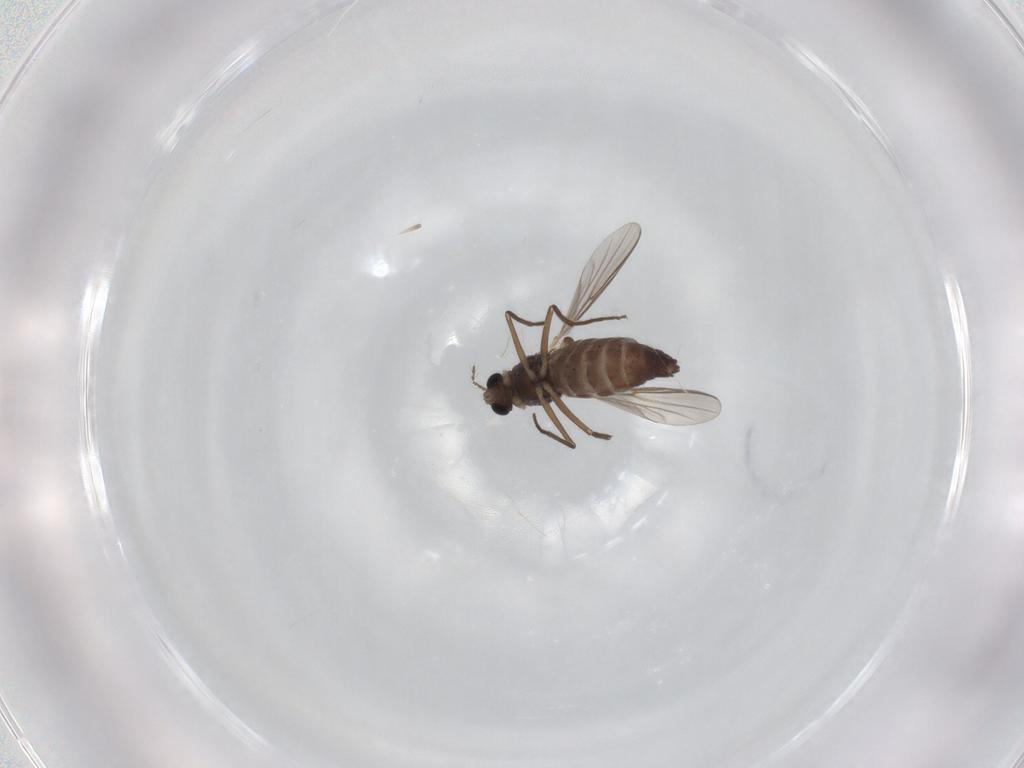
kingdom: Animalia
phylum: Arthropoda
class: Insecta
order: Diptera
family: Chironomidae
